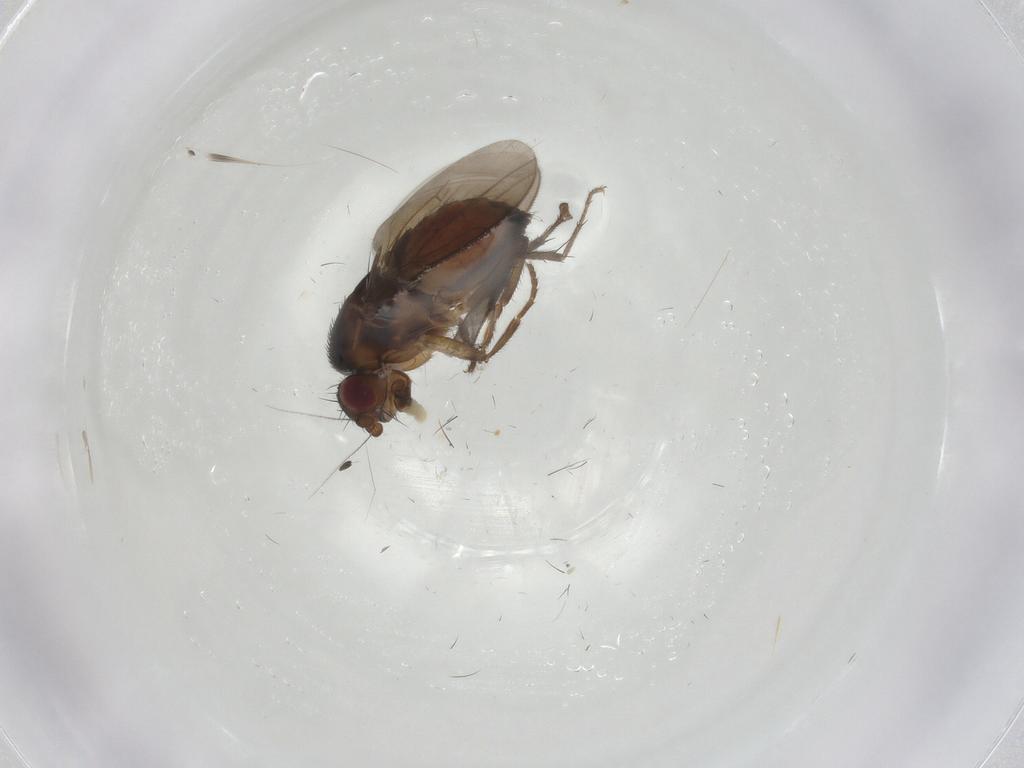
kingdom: Animalia
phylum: Arthropoda
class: Insecta
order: Diptera
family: Chironomidae
